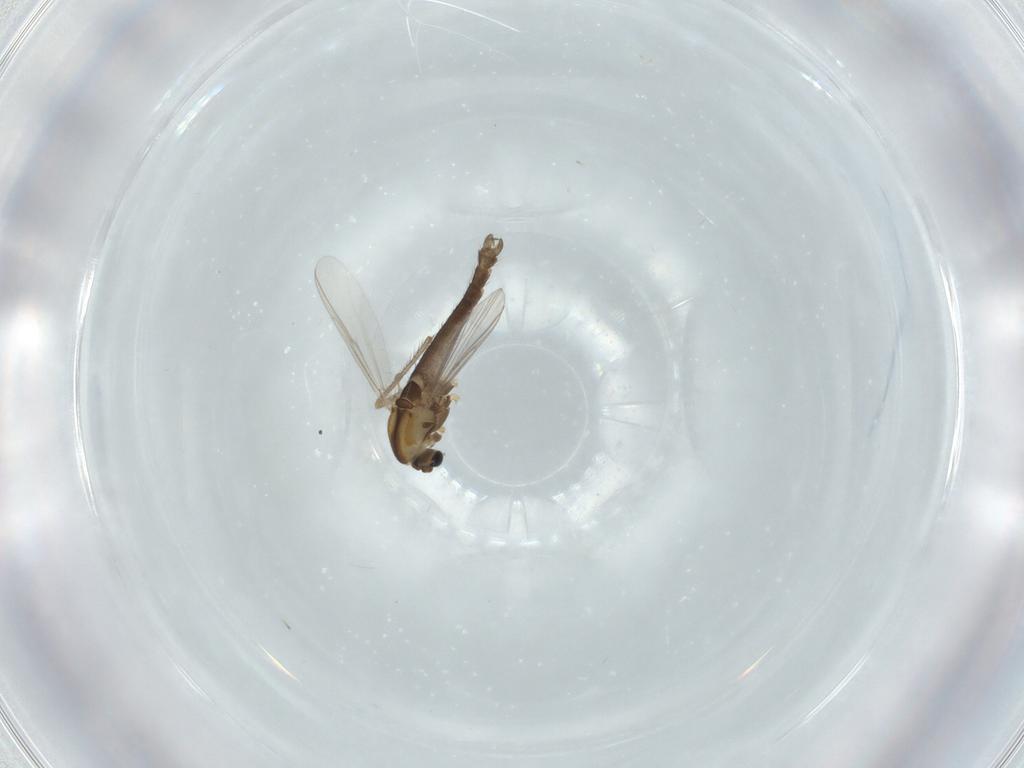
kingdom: Animalia
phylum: Arthropoda
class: Insecta
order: Diptera
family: Chironomidae
